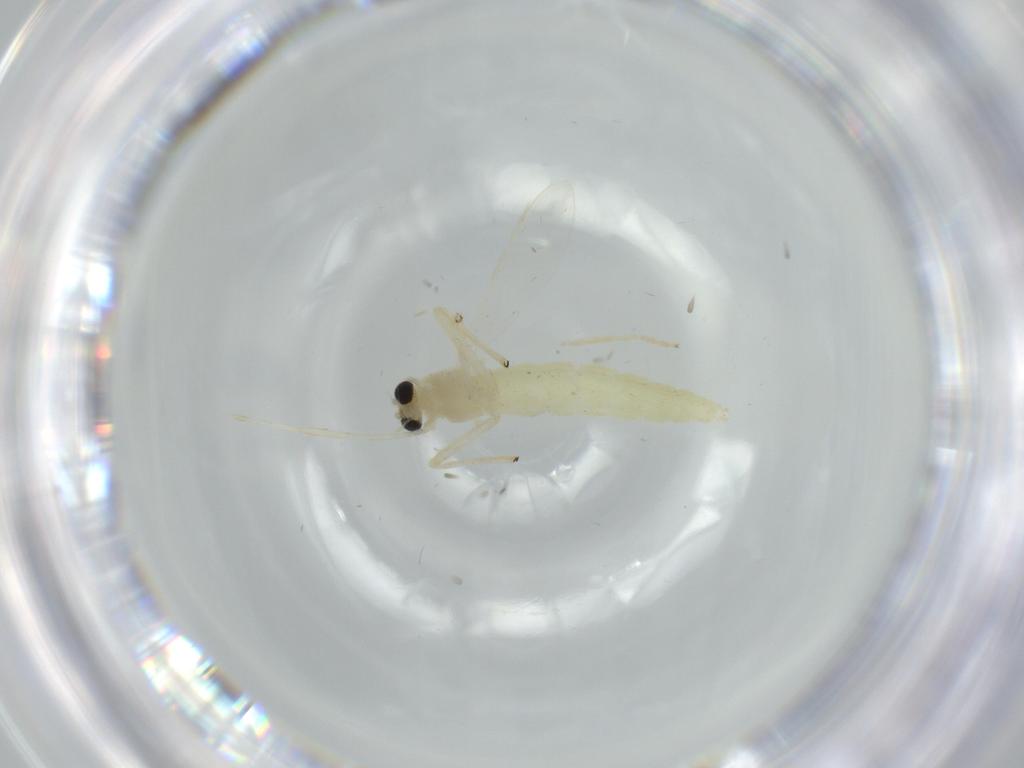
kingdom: Animalia
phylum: Arthropoda
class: Insecta
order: Diptera
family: Chironomidae
